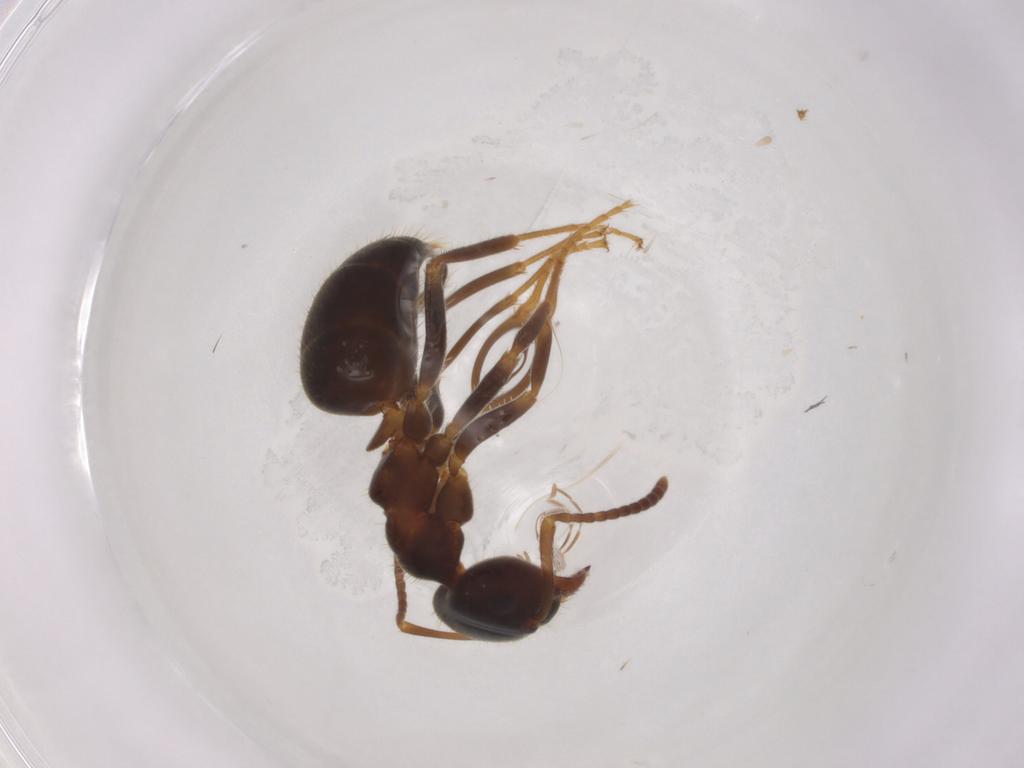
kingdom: Animalia
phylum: Arthropoda
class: Insecta
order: Hymenoptera
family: Formicidae
